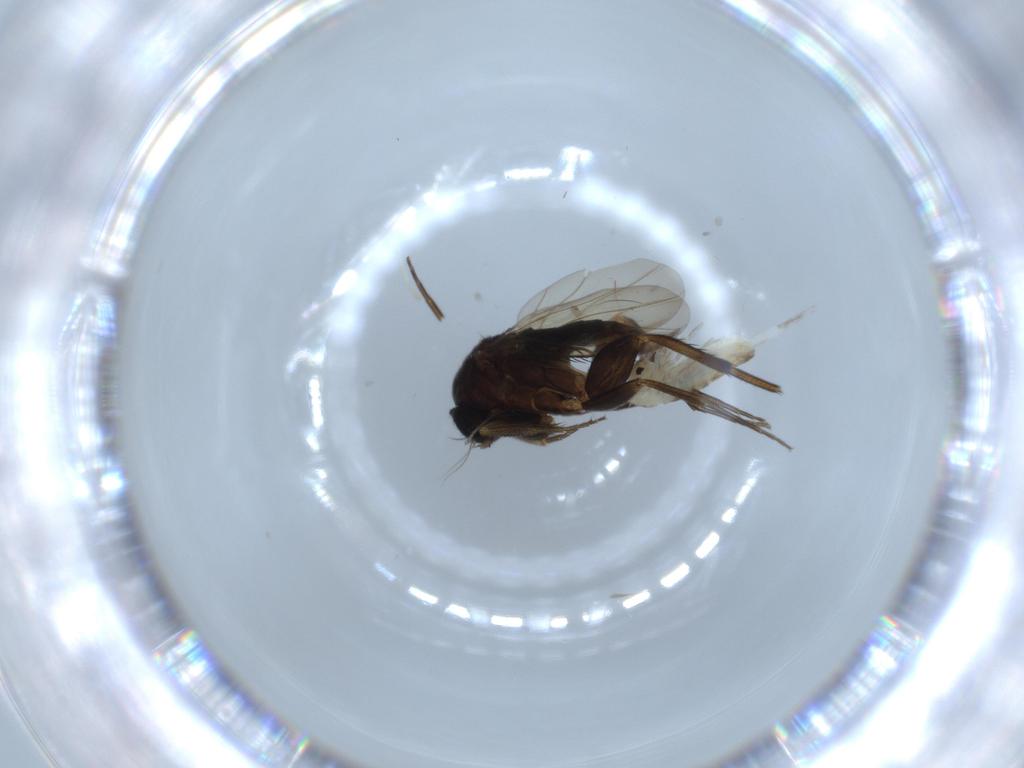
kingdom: Animalia
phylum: Arthropoda
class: Insecta
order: Diptera
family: Phoridae
